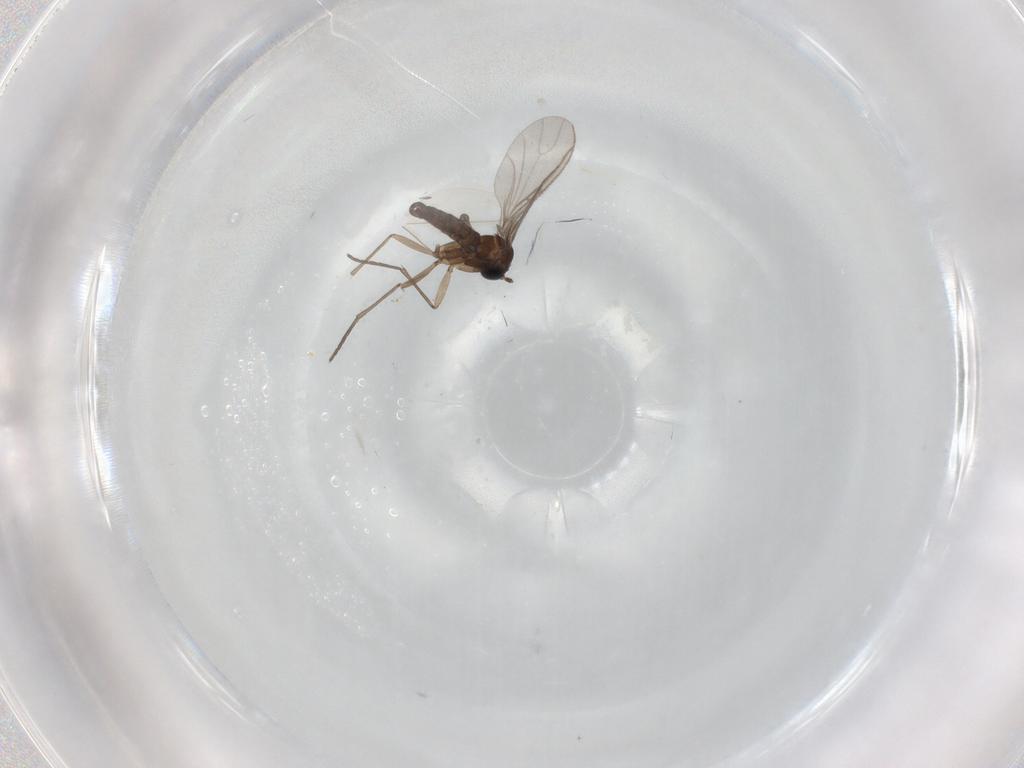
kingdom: Animalia
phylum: Arthropoda
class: Insecta
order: Diptera
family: Sciaridae
